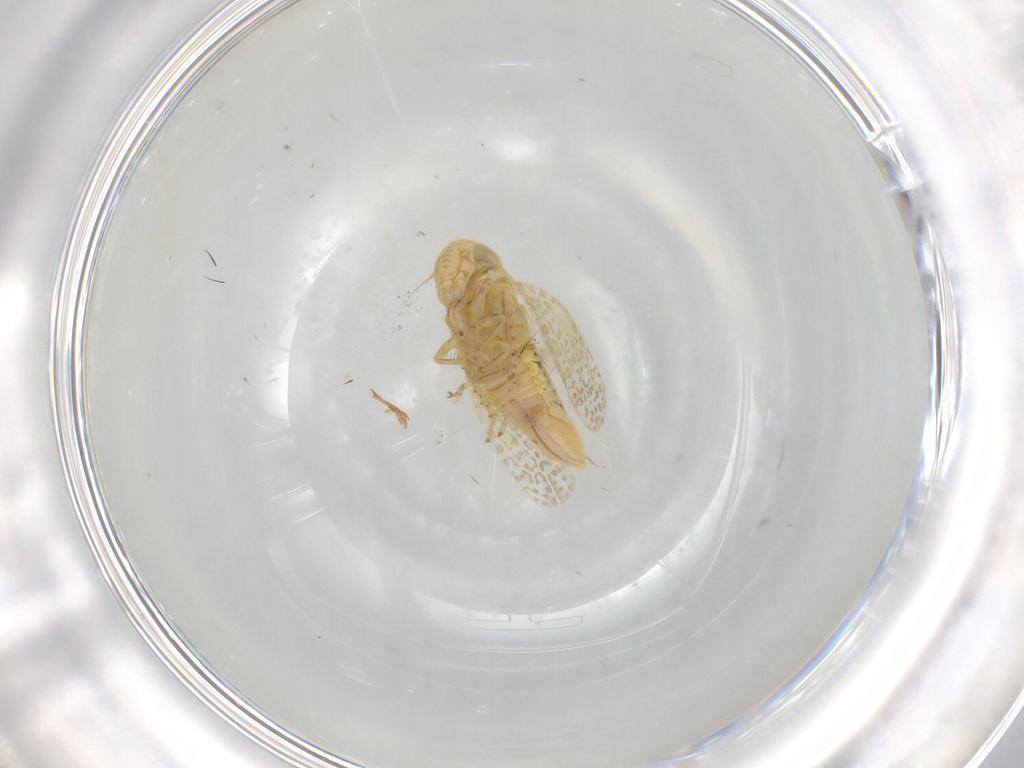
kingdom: Animalia
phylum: Arthropoda
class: Insecta
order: Hemiptera
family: Cicadellidae
